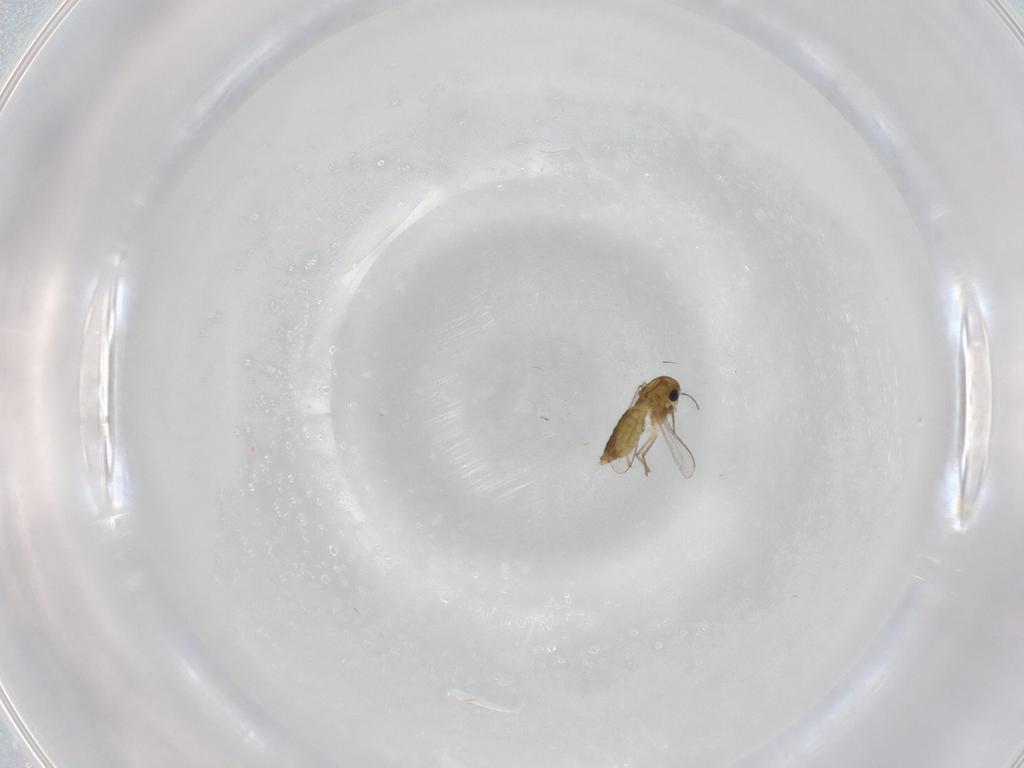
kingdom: Animalia
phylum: Arthropoda
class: Insecta
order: Diptera
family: Chironomidae
